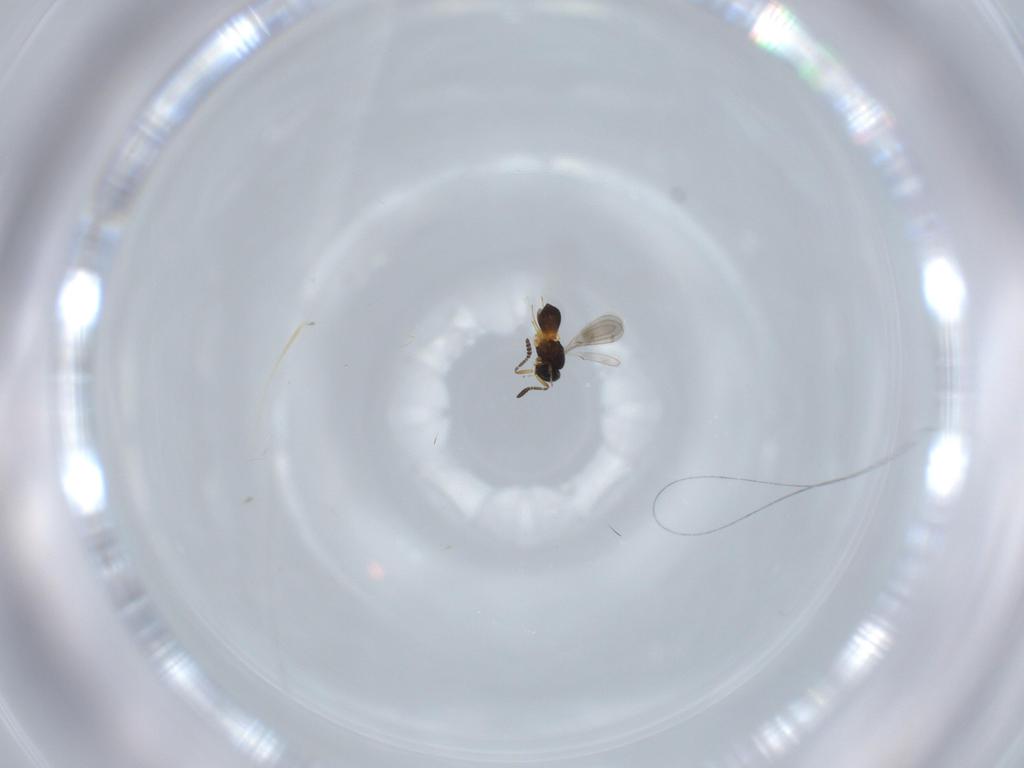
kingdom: Animalia
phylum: Arthropoda
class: Insecta
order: Hymenoptera
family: Scelionidae
